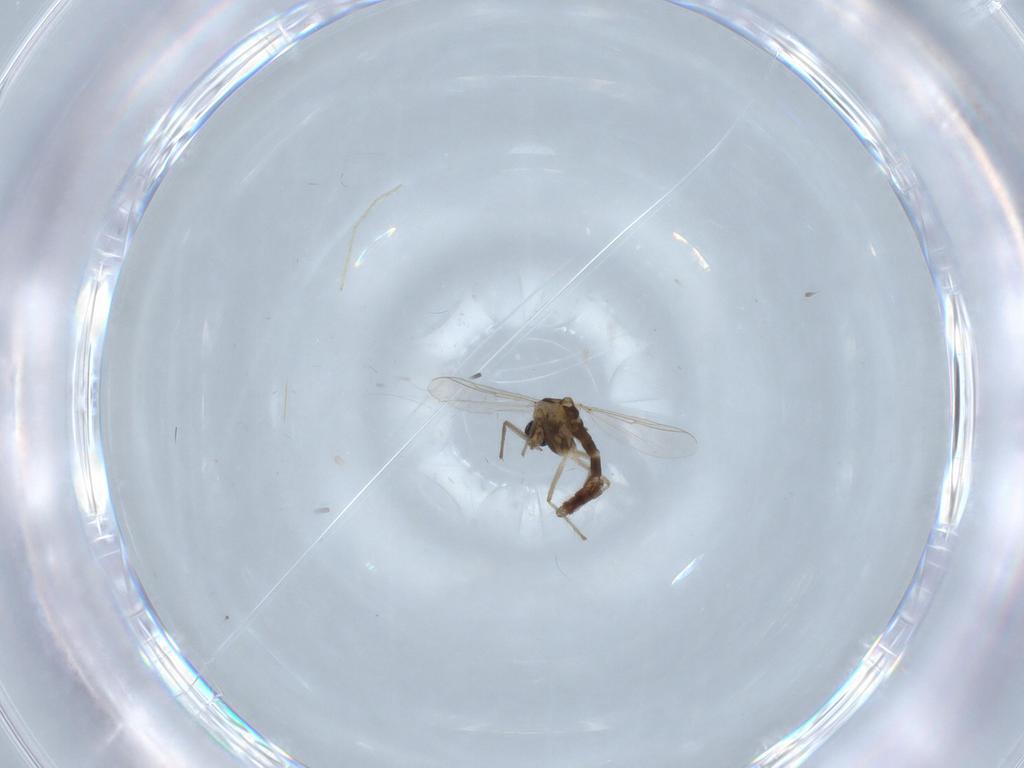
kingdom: Animalia
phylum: Arthropoda
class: Insecta
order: Diptera
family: Chironomidae
